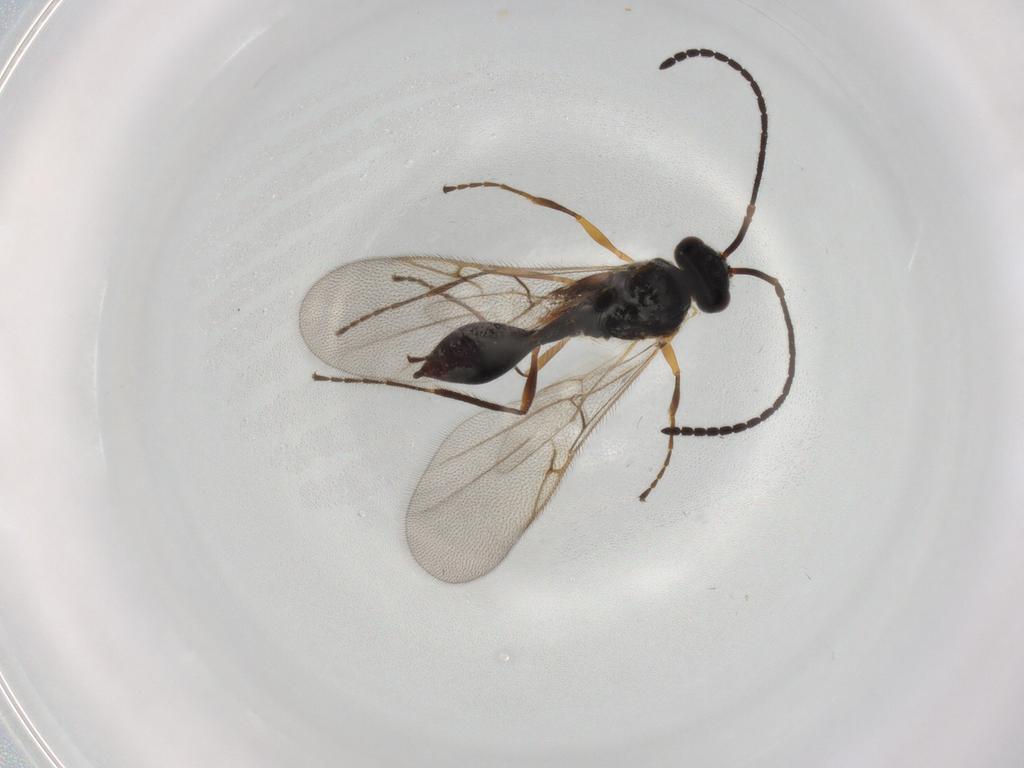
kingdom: Animalia
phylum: Arthropoda
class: Insecta
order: Hymenoptera
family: Diapriidae
